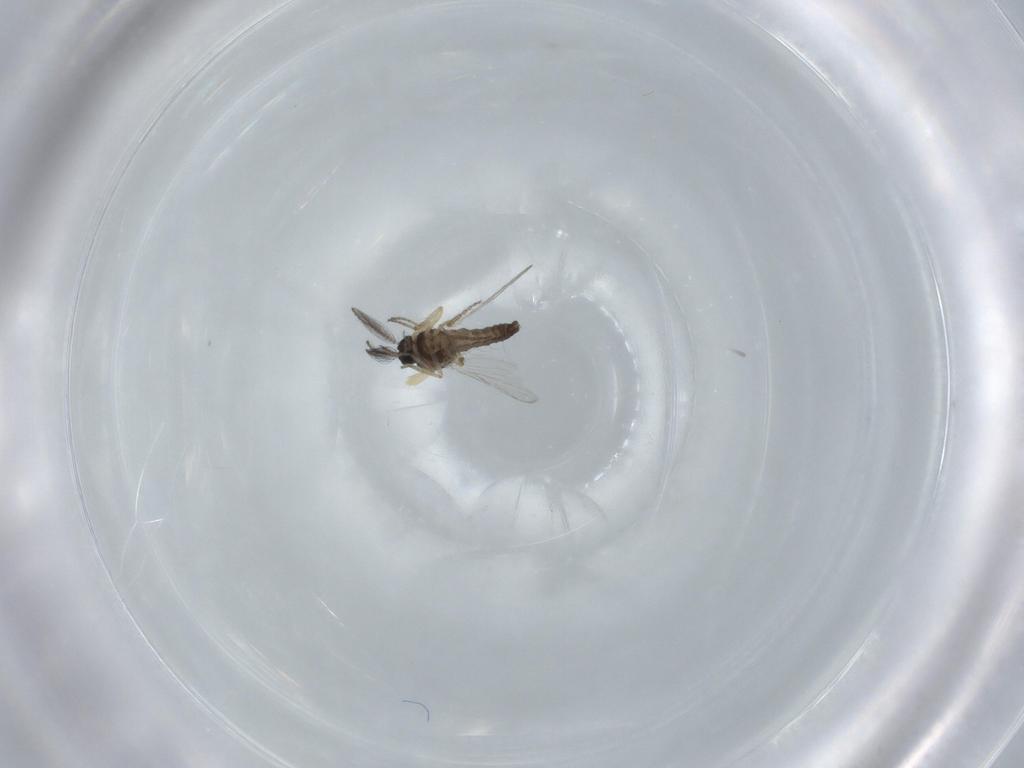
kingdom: Animalia
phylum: Arthropoda
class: Insecta
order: Diptera
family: Ceratopogonidae
